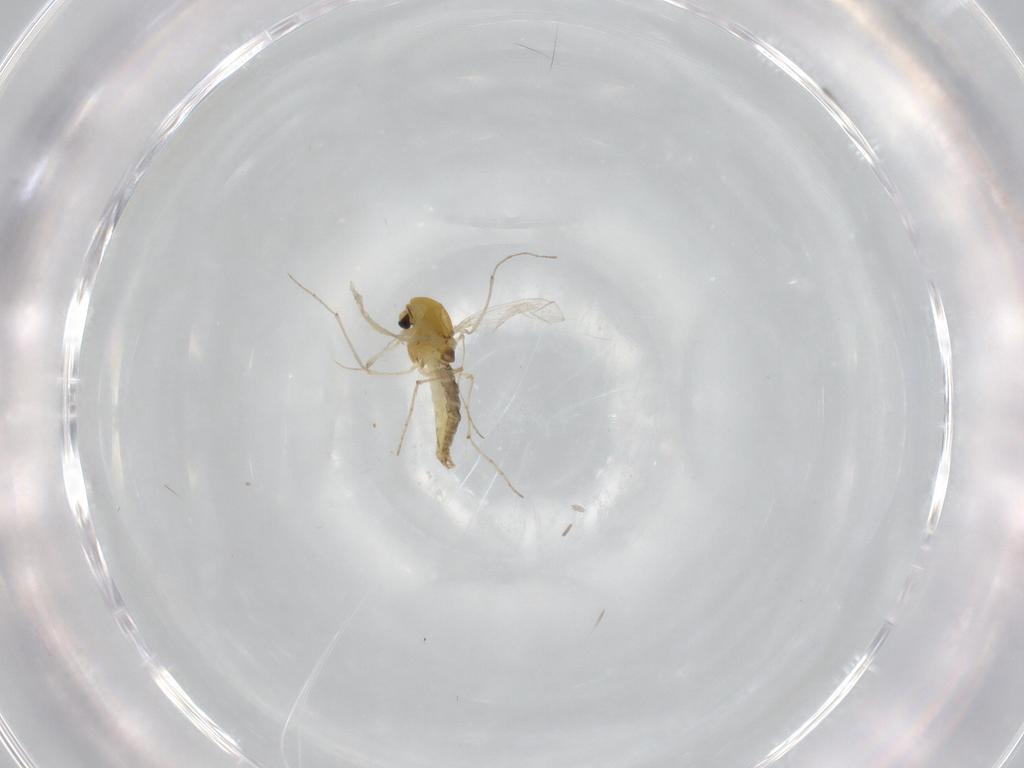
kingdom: Animalia
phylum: Arthropoda
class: Insecta
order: Diptera
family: Chironomidae
